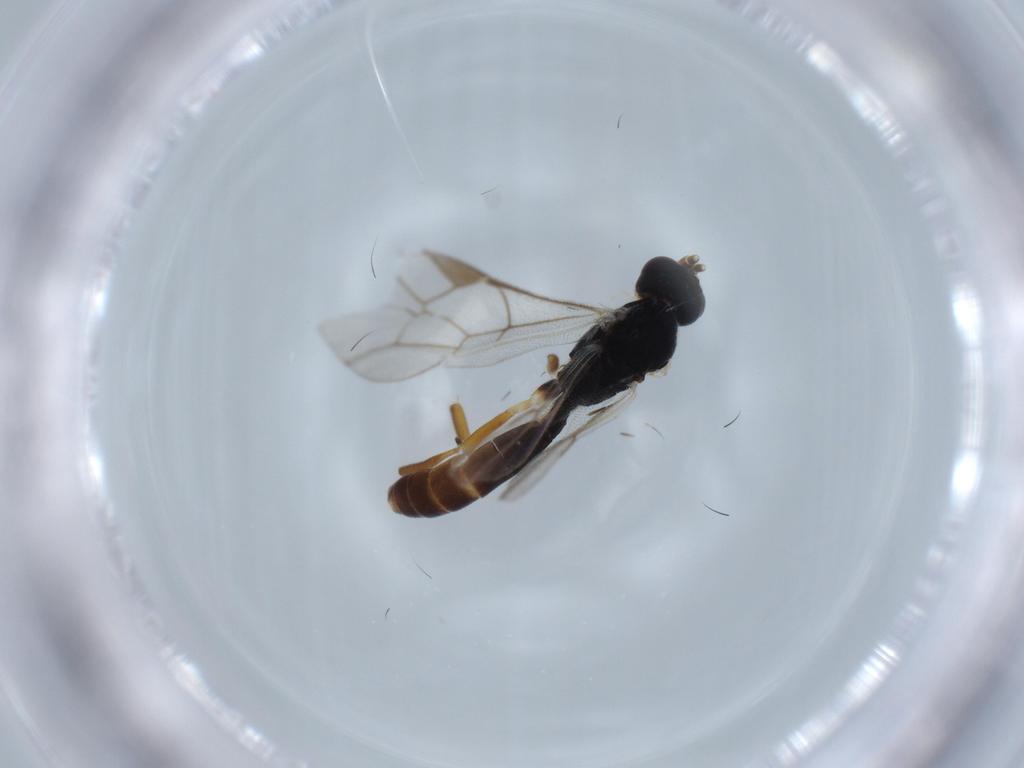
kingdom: Animalia
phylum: Arthropoda
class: Insecta
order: Hymenoptera
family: Ichneumonidae
